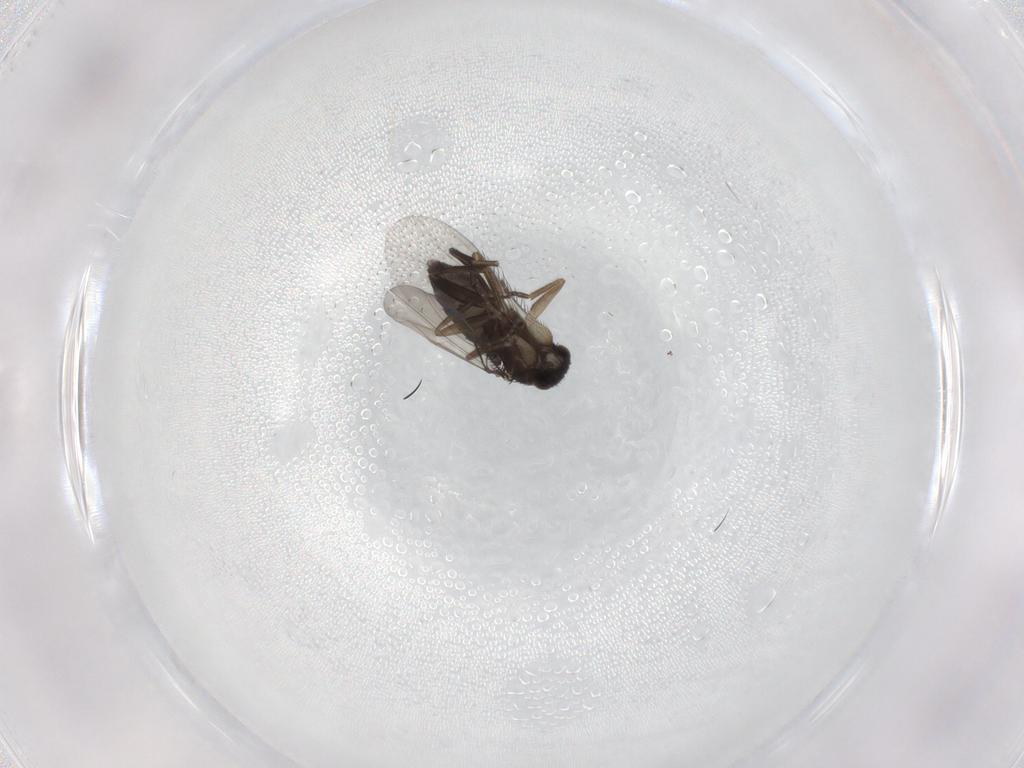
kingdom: Animalia
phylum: Arthropoda
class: Insecta
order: Diptera
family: Phoridae
